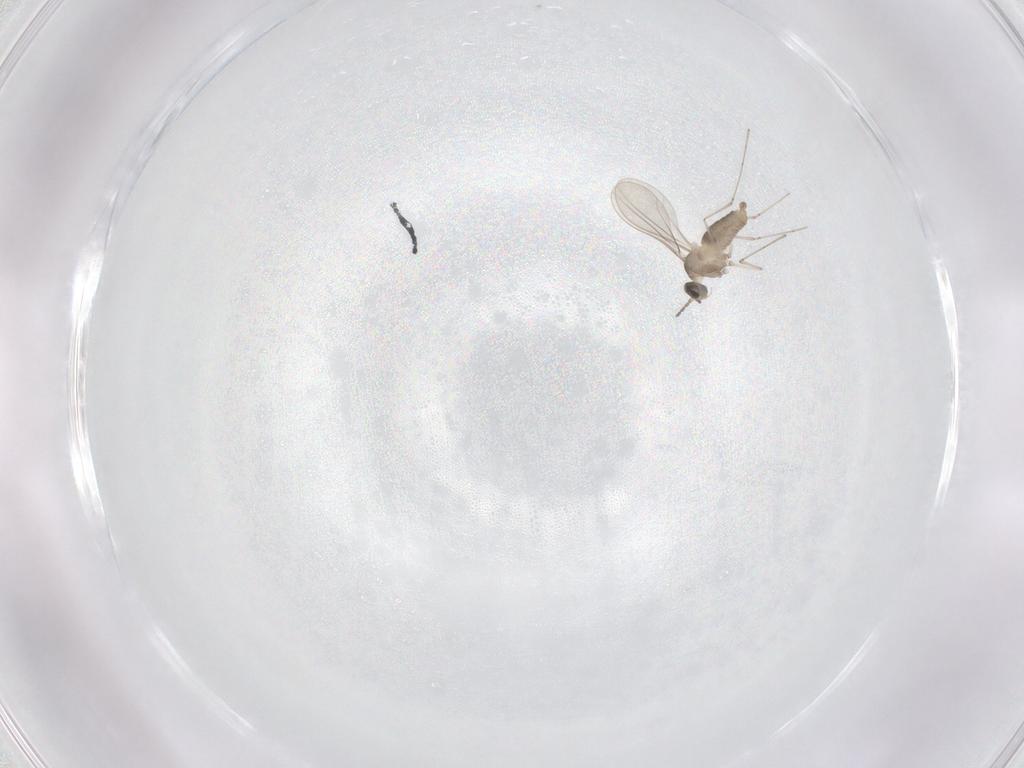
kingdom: Animalia
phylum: Arthropoda
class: Insecta
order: Diptera
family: Cecidomyiidae
